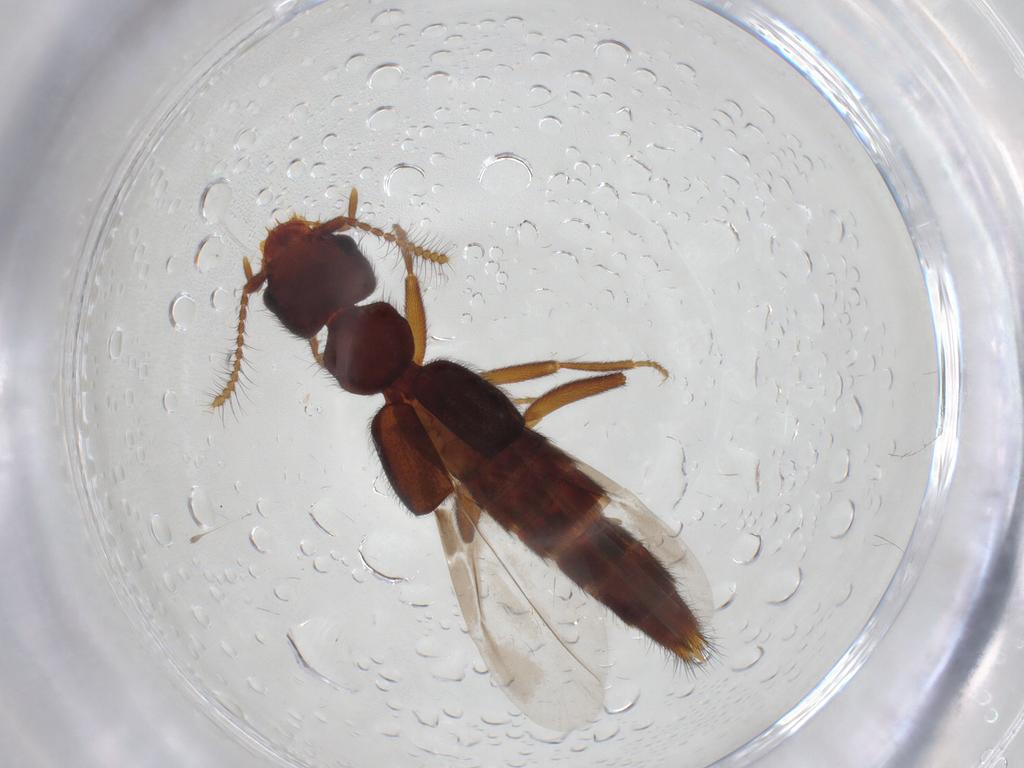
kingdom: Animalia
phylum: Arthropoda
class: Insecta
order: Coleoptera
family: Staphylinidae
